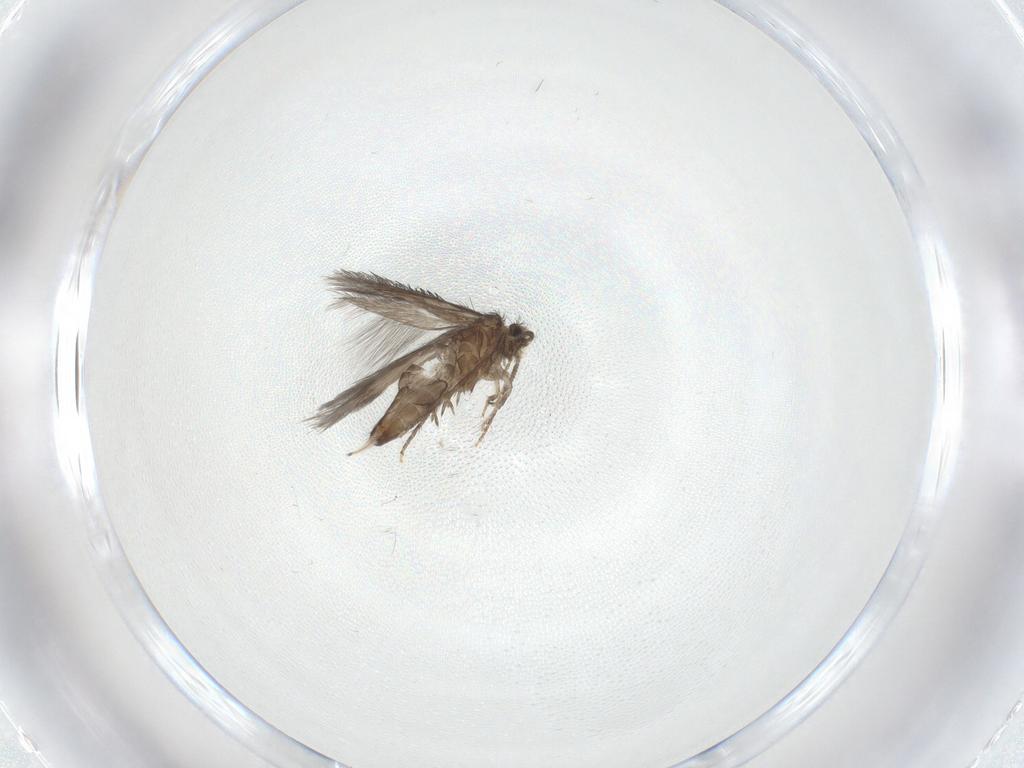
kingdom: Animalia
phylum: Arthropoda
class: Insecta
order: Trichoptera
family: Hydroptilidae
